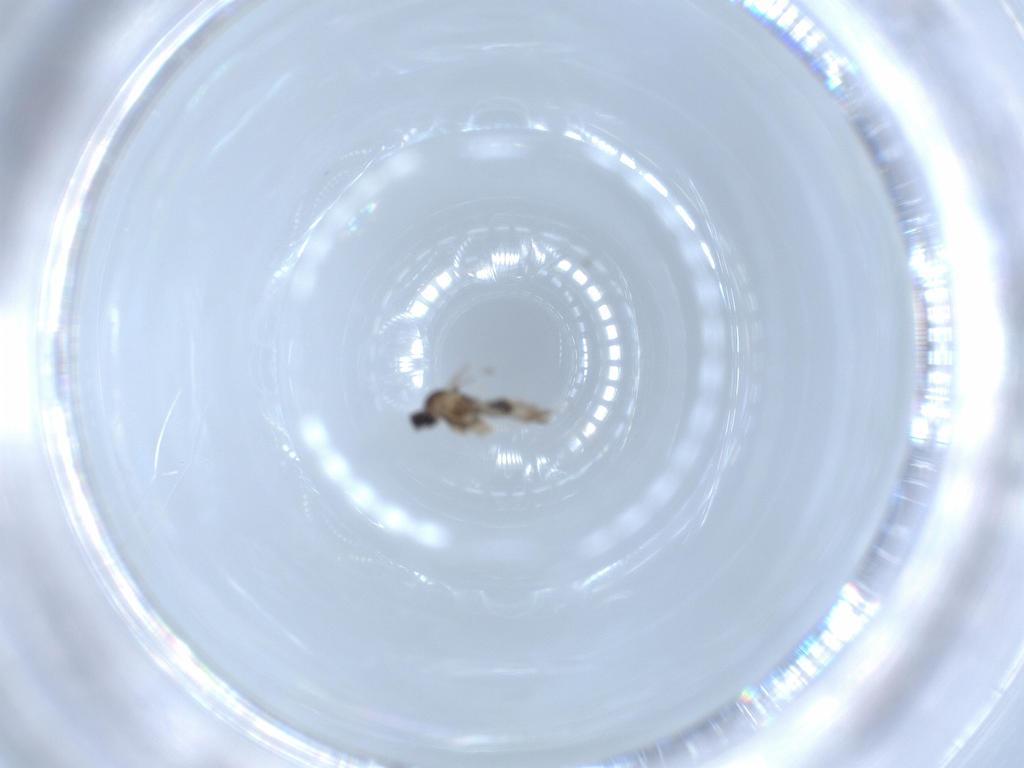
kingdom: Animalia
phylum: Arthropoda
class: Insecta
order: Diptera
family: Cecidomyiidae
